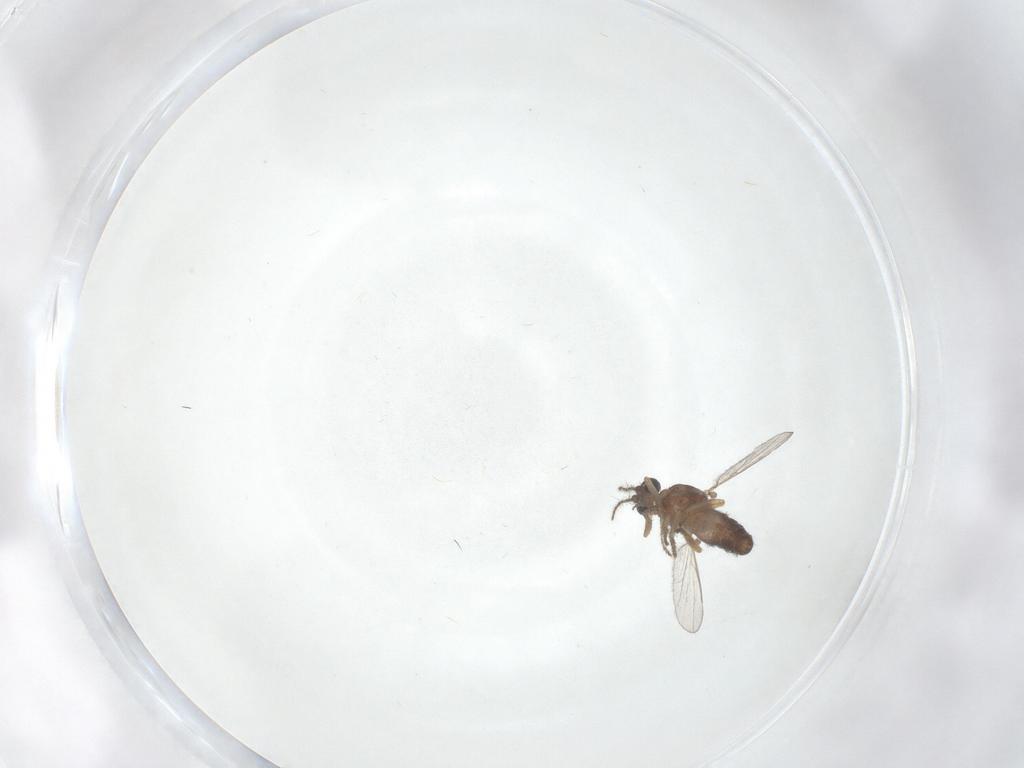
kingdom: Animalia
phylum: Arthropoda
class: Insecta
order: Diptera
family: Ceratopogonidae
